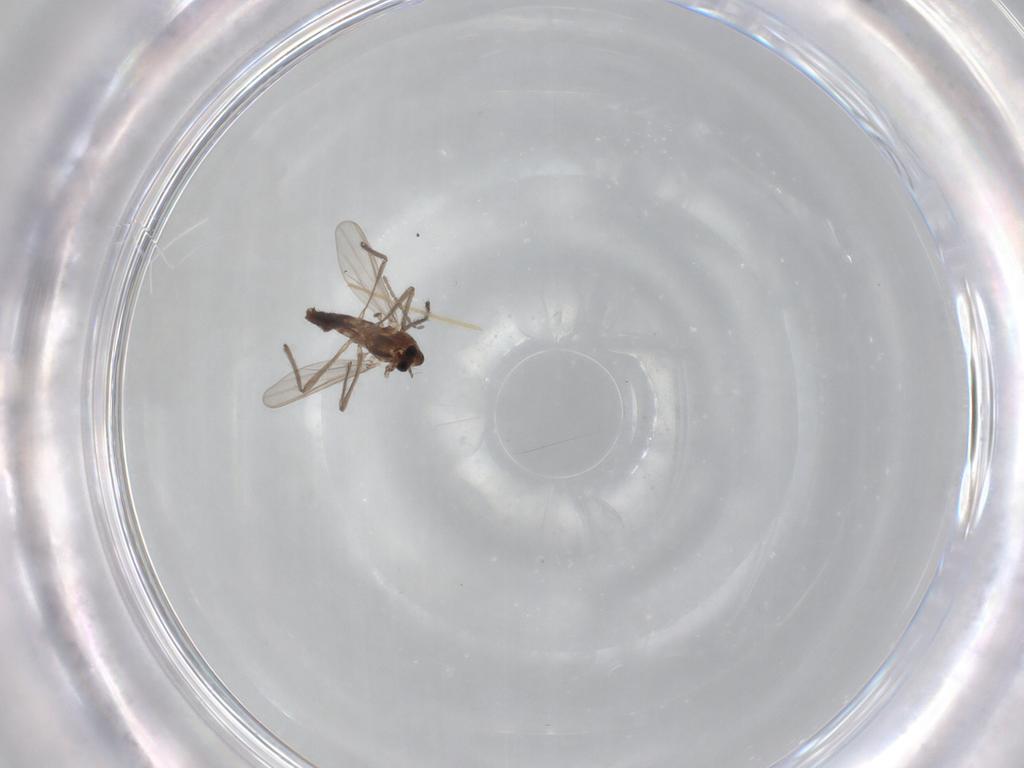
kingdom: Animalia
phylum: Arthropoda
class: Insecta
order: Diptera
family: Chironomidae
